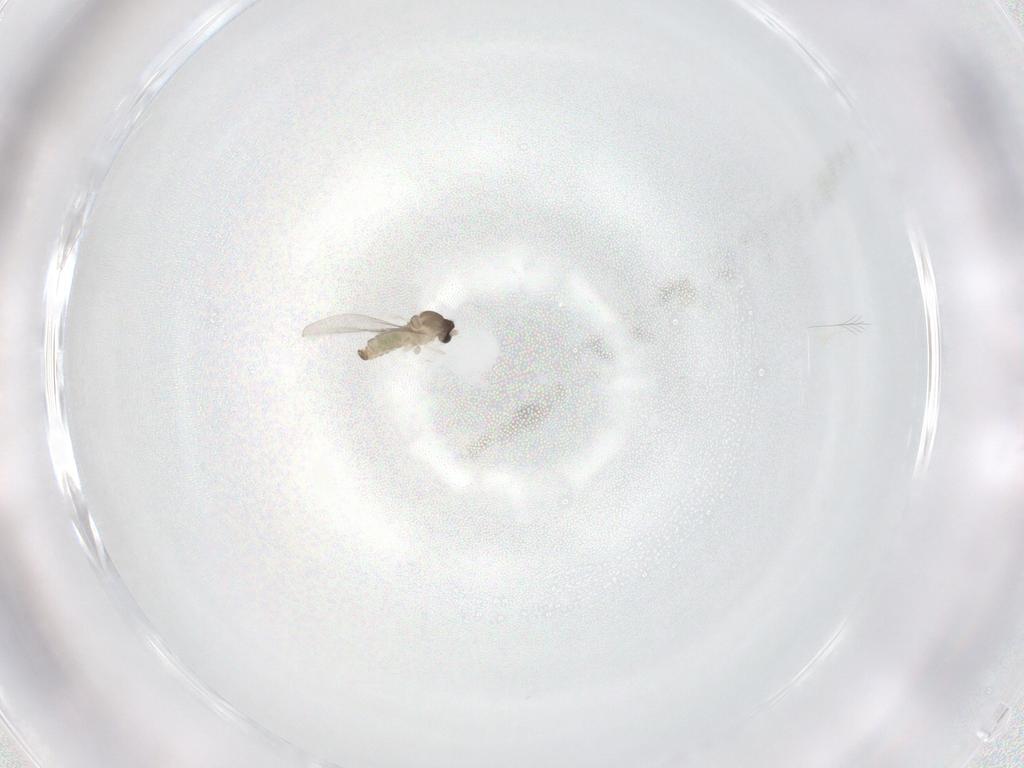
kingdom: Animalia
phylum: Arthropoda
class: Insecta
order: Diptera
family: Cecidomyiidae
